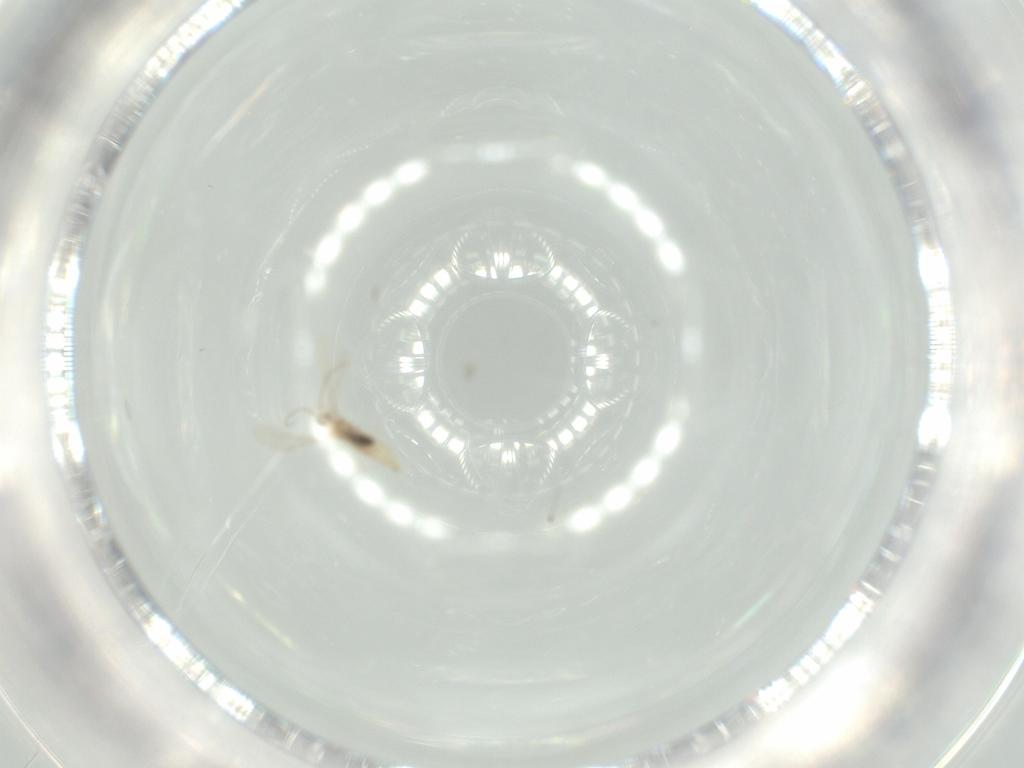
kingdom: Animalia
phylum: Arthropoda
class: Insecta
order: Diptera
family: Cecidomyiidae
